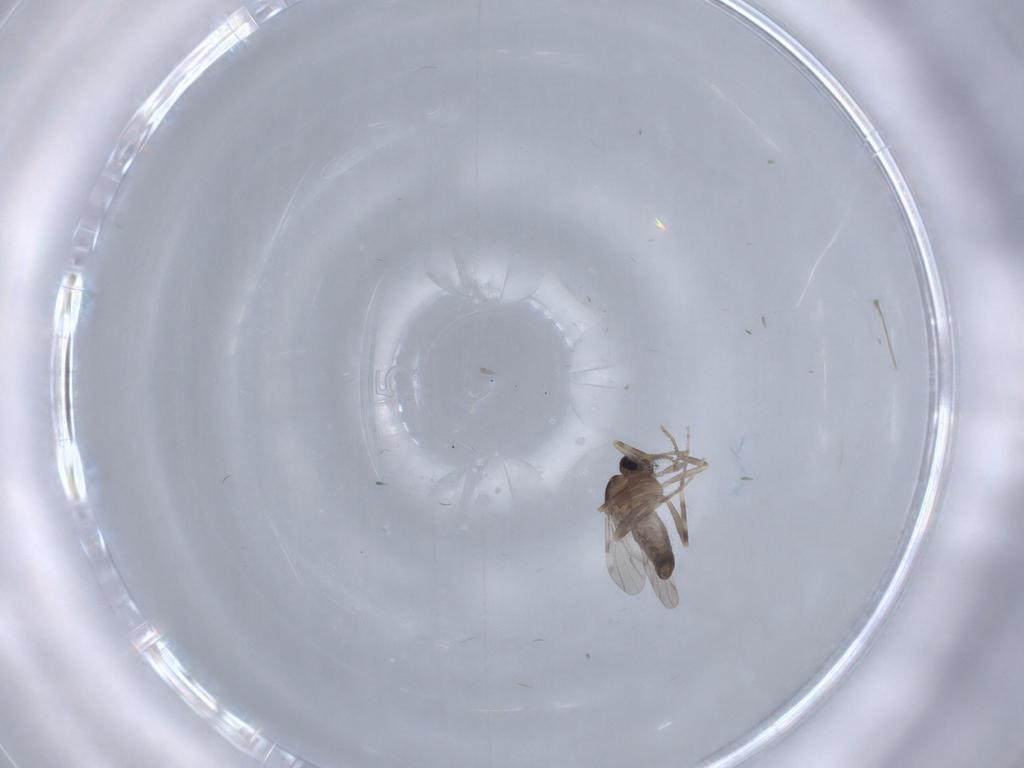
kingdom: Animalia
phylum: Arthropoda
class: Insecta
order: Diptera
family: Ceratopogonidae
